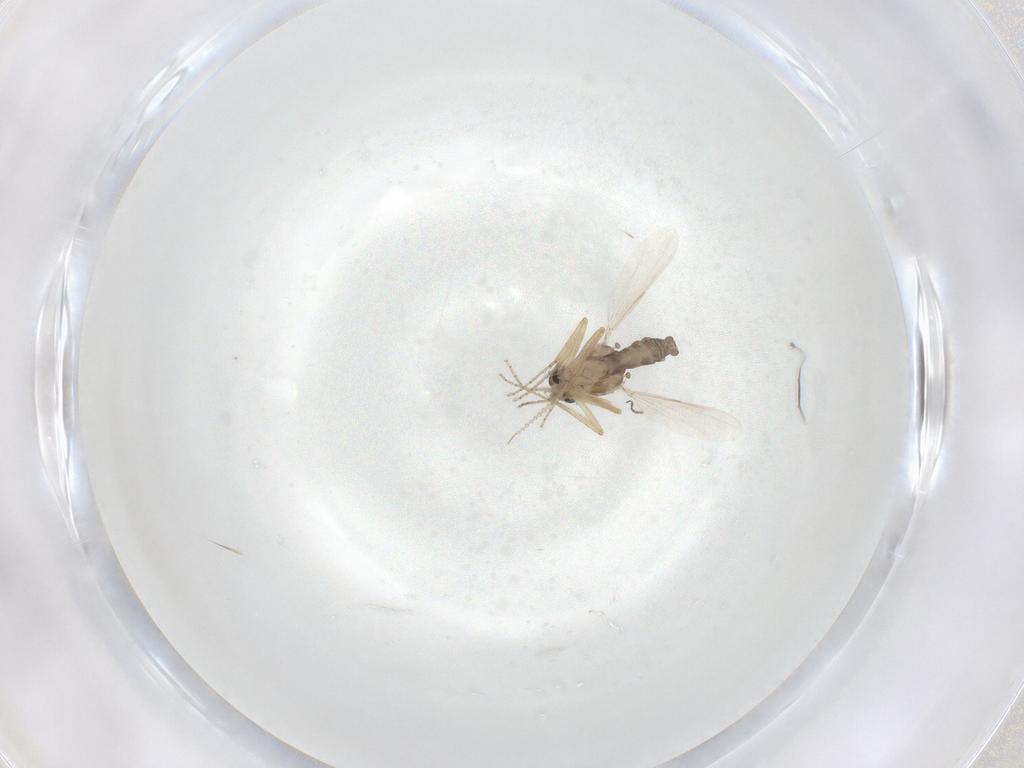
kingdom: Animalia
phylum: Arthropoda
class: Insecta
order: Diptera
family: Ceratopogonidae
